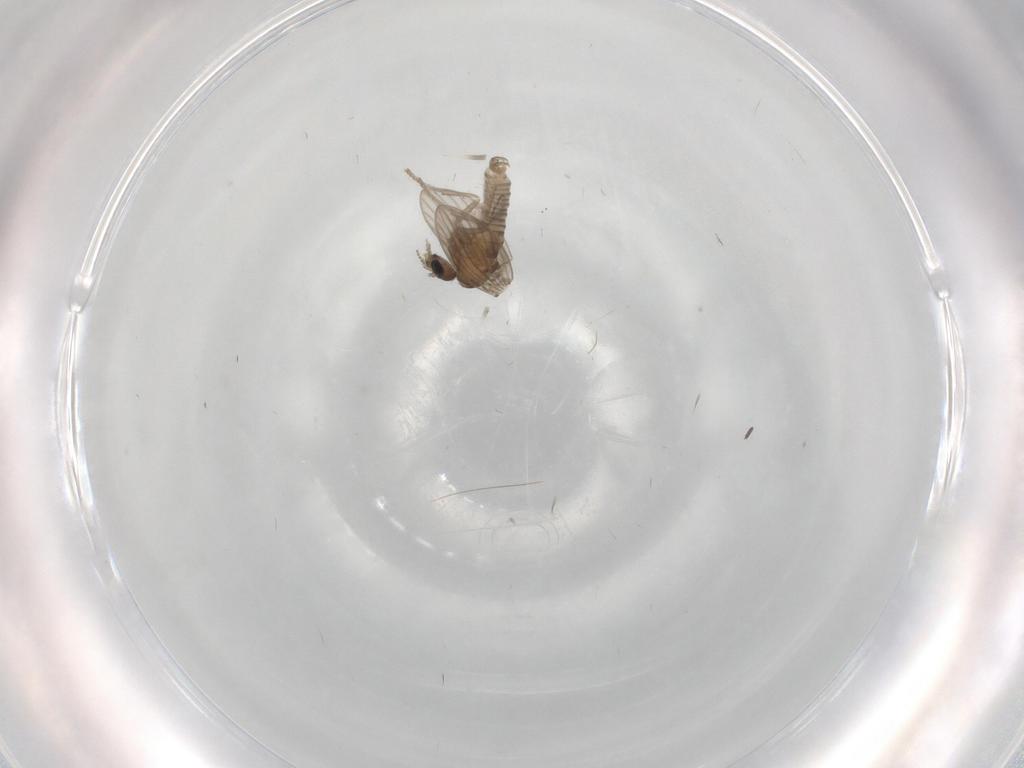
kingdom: Animalia
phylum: Arthropoda
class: Insecta
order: Diptera
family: Psychodidae
